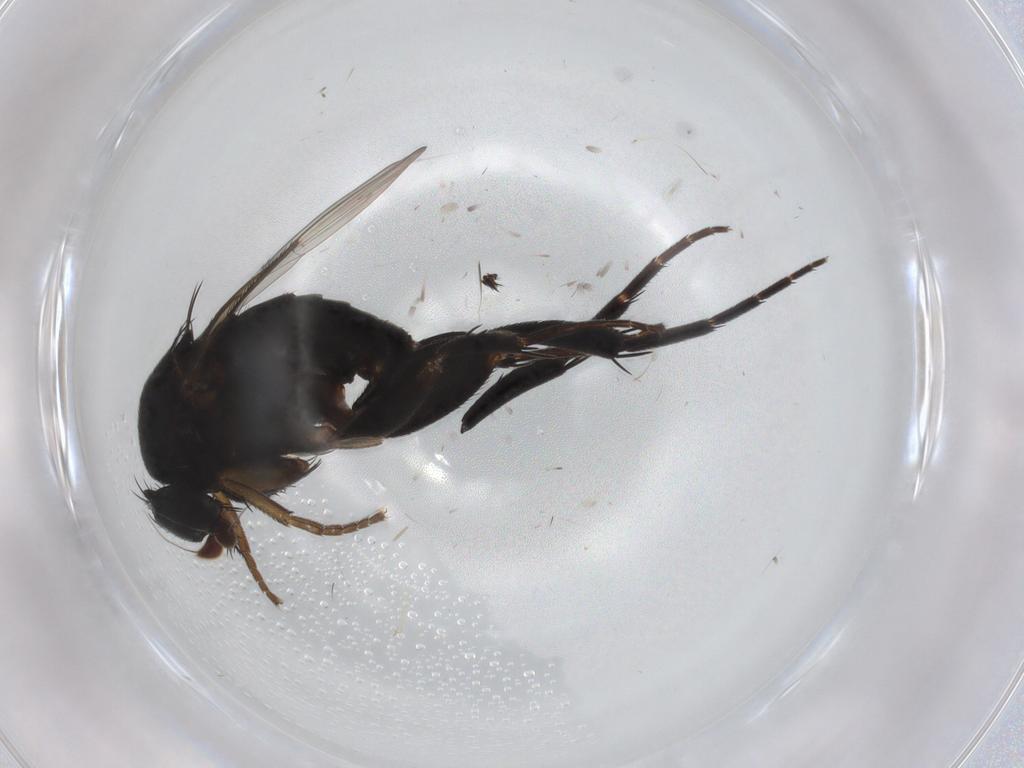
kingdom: Animalia
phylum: Arthropoda
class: Insecta
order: Diptera
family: Phoridae
